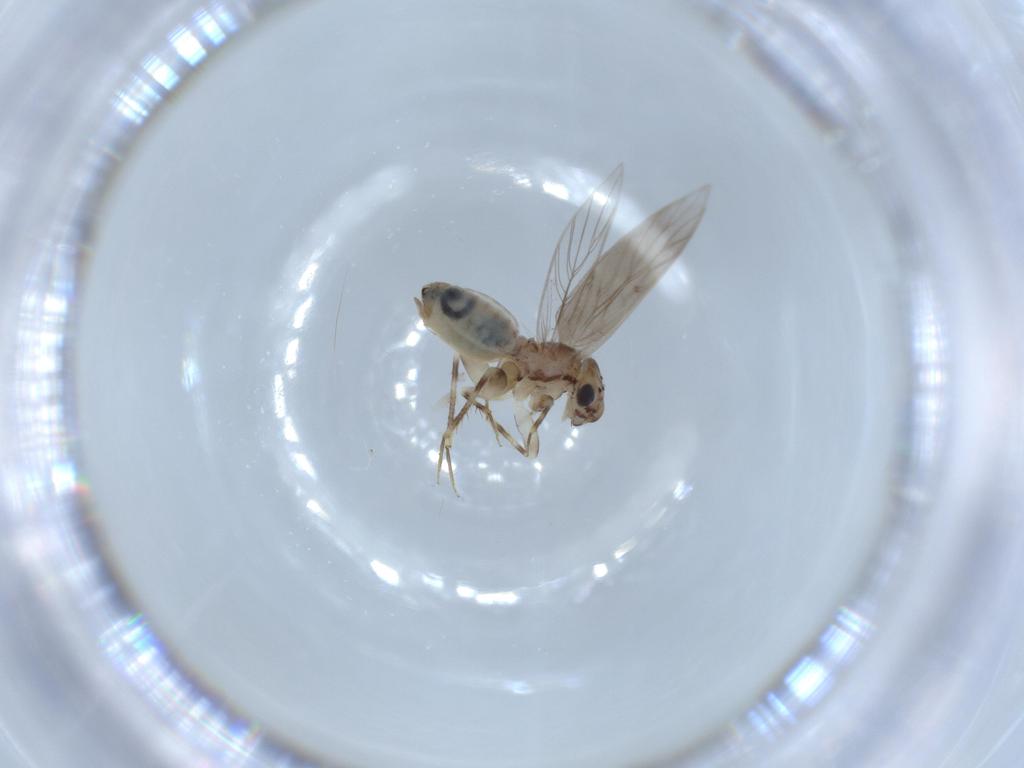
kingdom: Animalia
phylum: Arthropoda
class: Insecta
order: Psocodea
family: Lepidopsocidae
